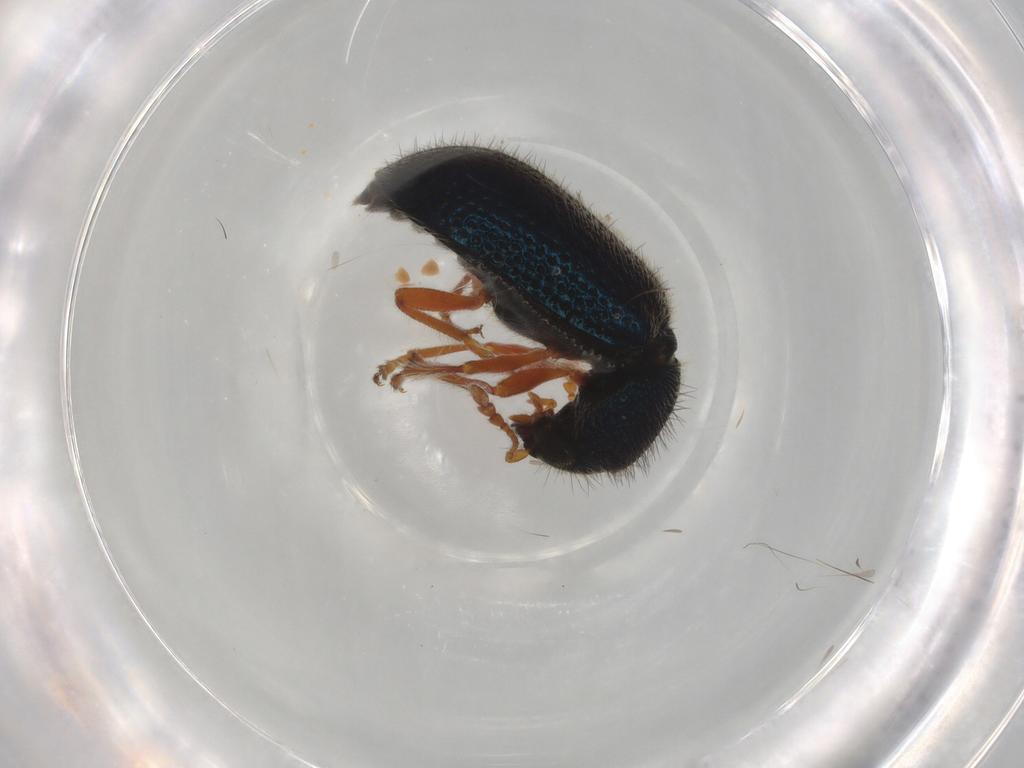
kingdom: Animalia
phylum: Arthropoda
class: Insecta
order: Coleoptera
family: Cleridae
